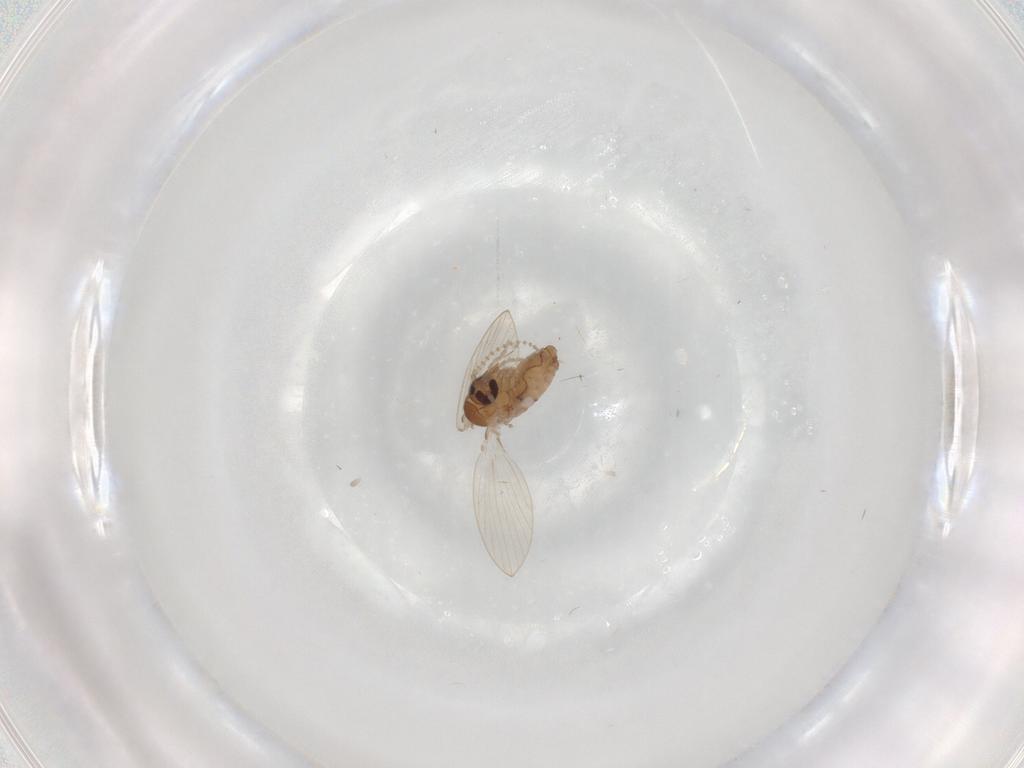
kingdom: Animalia
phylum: Arthropoda
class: Insecta
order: Diptera
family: Psychodidae
